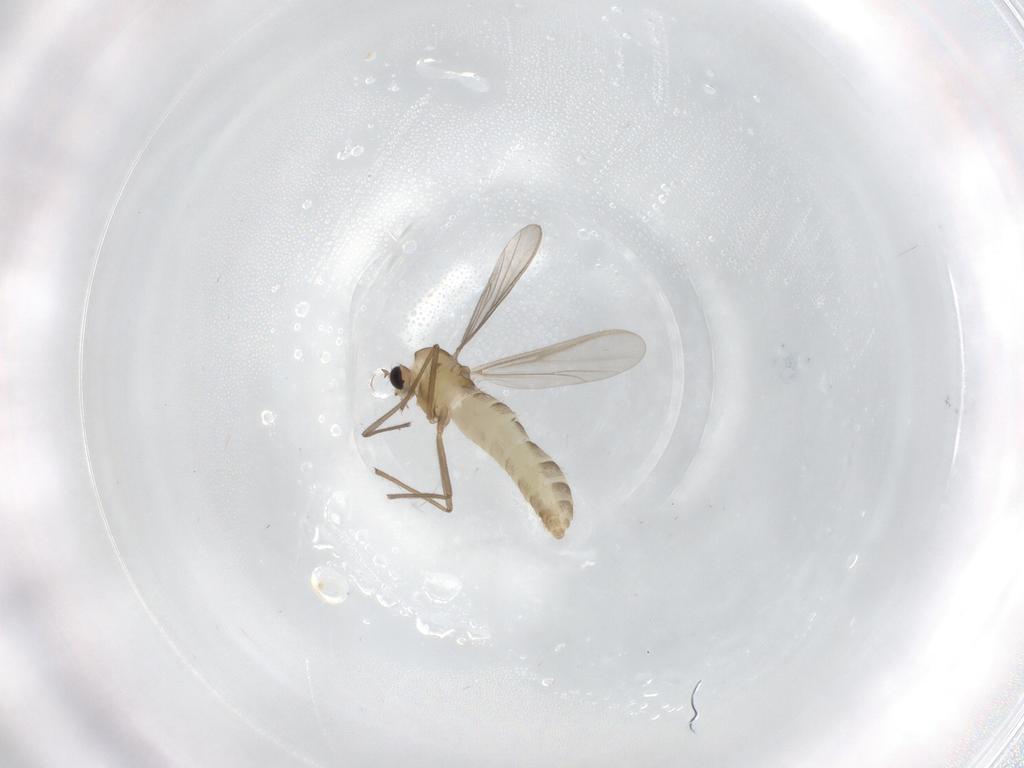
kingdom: Animalia
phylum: Arthropoda
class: Insecta
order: Diptera
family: Chironomidae
